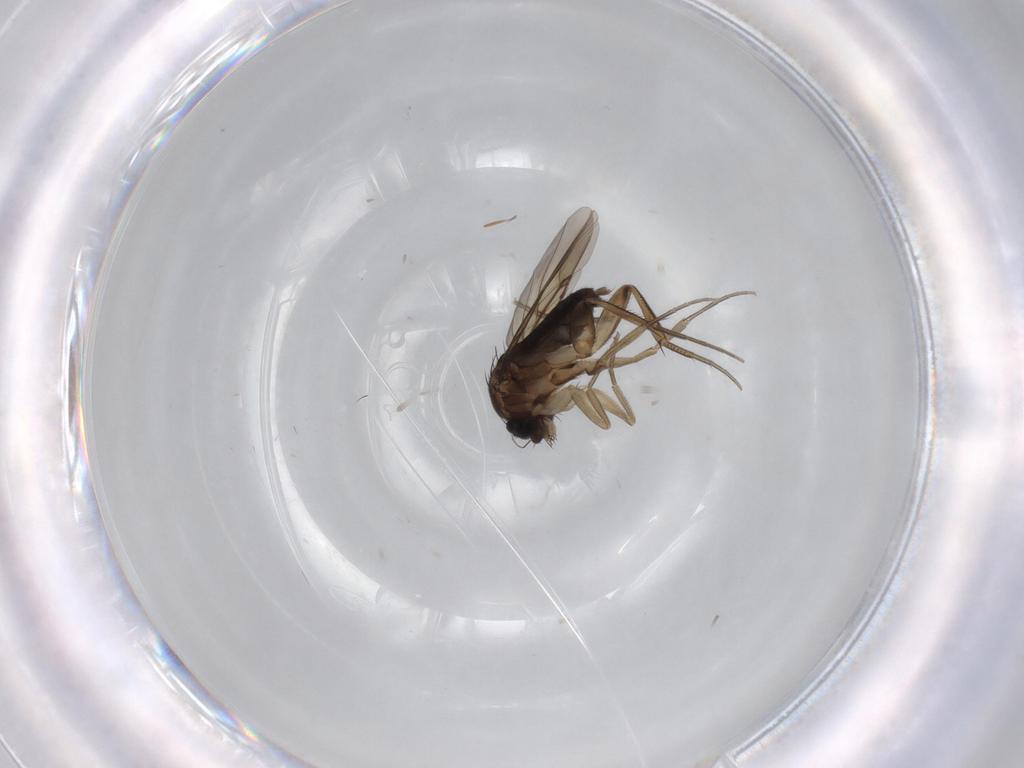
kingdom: Animalia
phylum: Arthropoda
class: Insecta
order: Diptera
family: Phoridae
